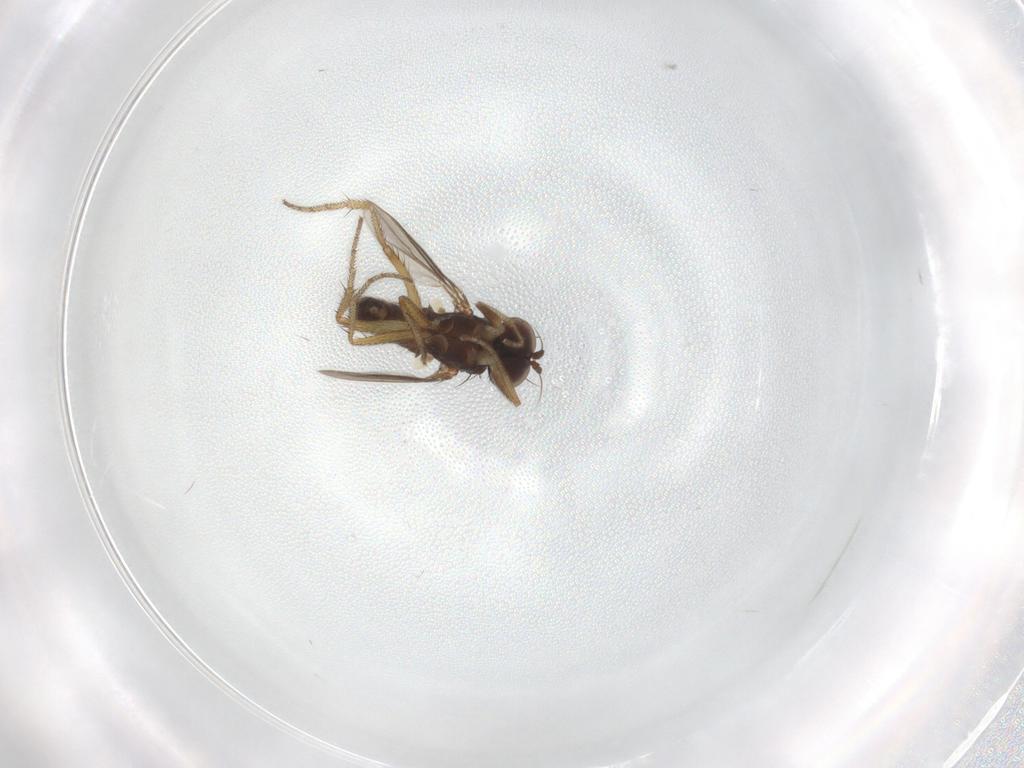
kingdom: Animalia
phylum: Arthropoda
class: Insecta
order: Diptera
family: Dolichopodidae
